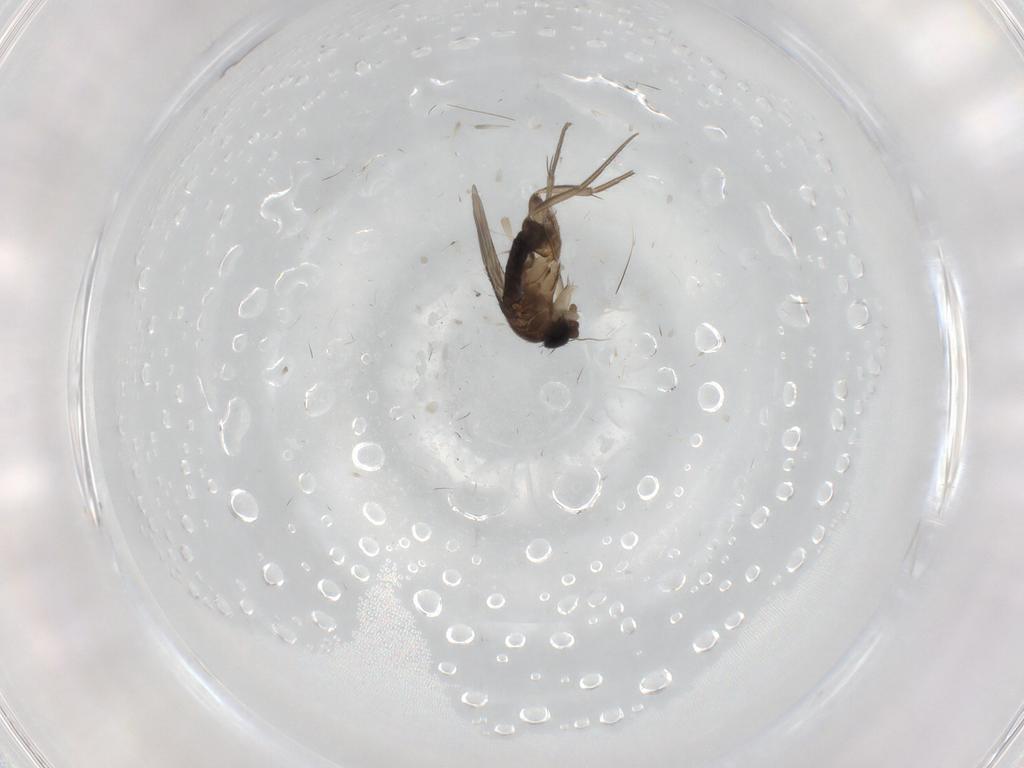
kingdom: Animalia
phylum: Arthropoda
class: Insecta
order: Diptera
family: Phoridae
